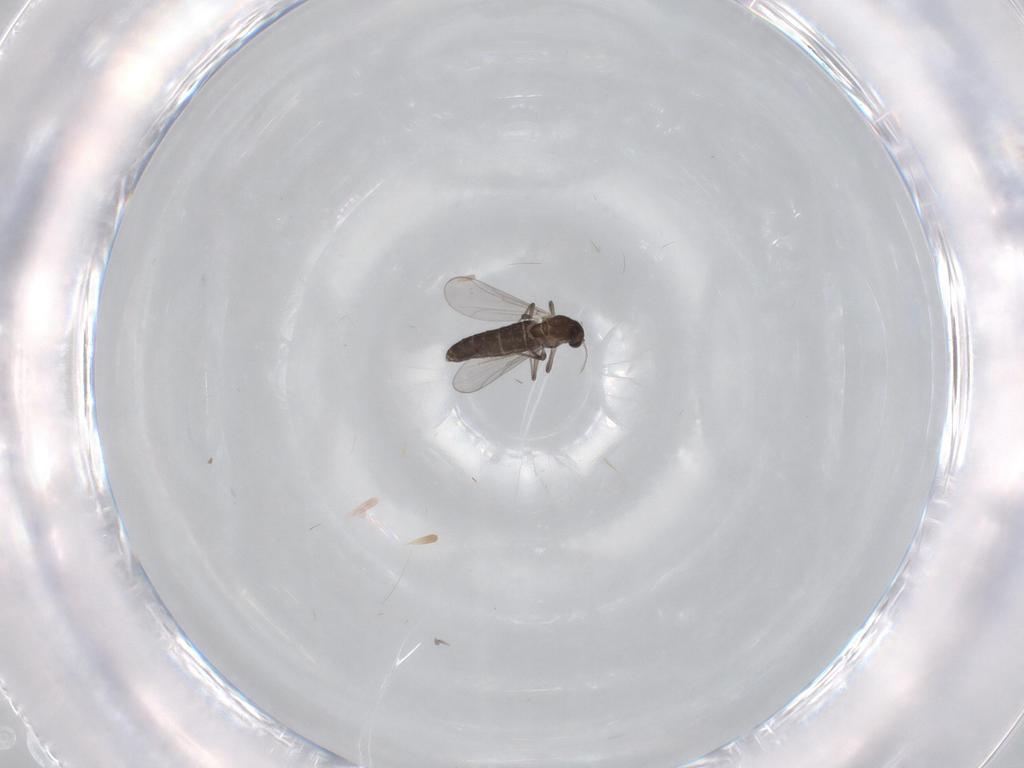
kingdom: Animalia
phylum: Arthropoda
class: Insecta
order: Diptera
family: Chironomidae
